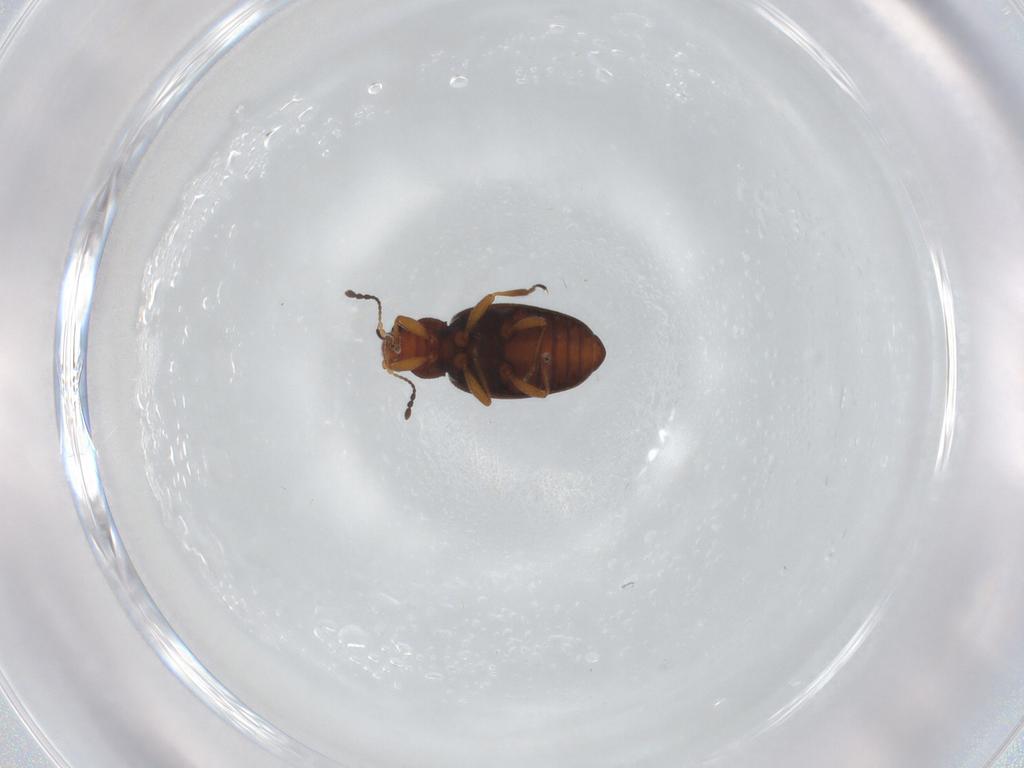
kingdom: Animalia
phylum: Arthropoda
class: Insecta
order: Coleoptera
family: Latridiidae
